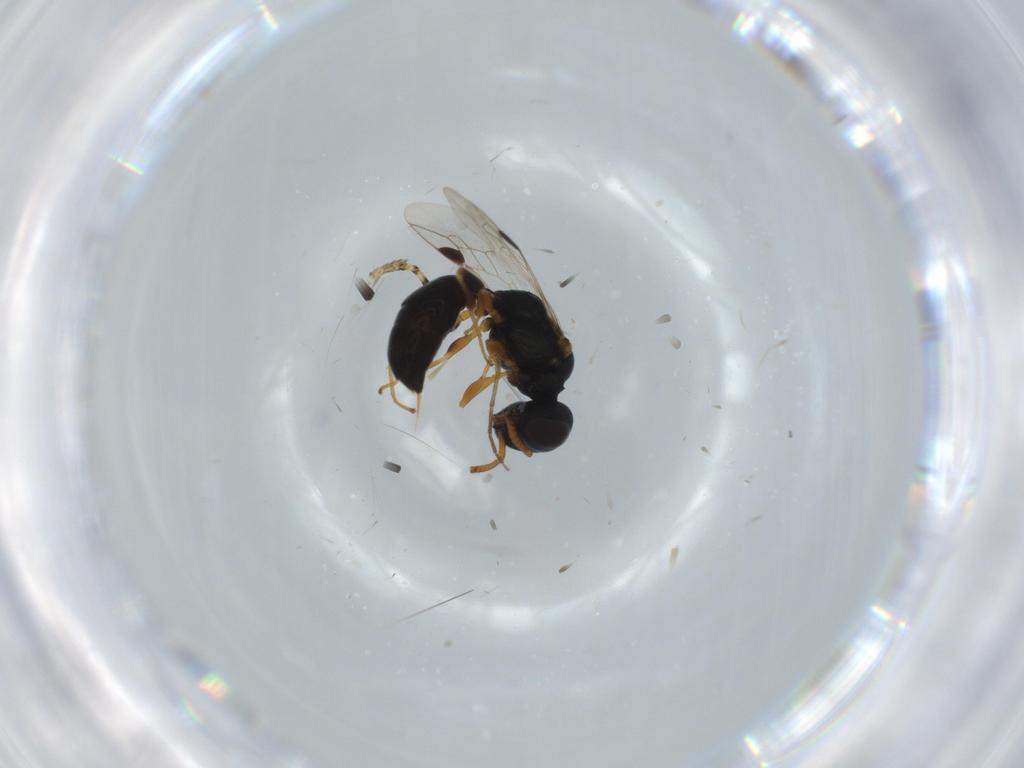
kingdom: Animalia
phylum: Arthropoda
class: Insecta
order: Hymenoptera
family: Pemphredonidae
